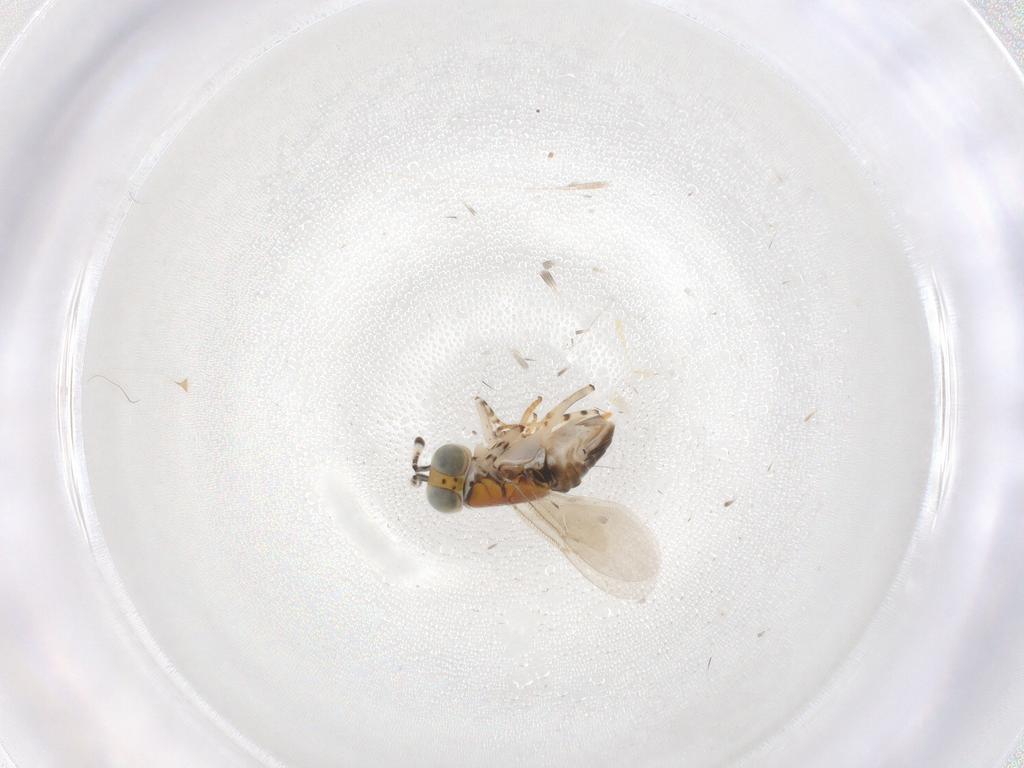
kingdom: Animalia
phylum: Arthropoda
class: Insecta
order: Hymenoptera
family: Encyrtidae
